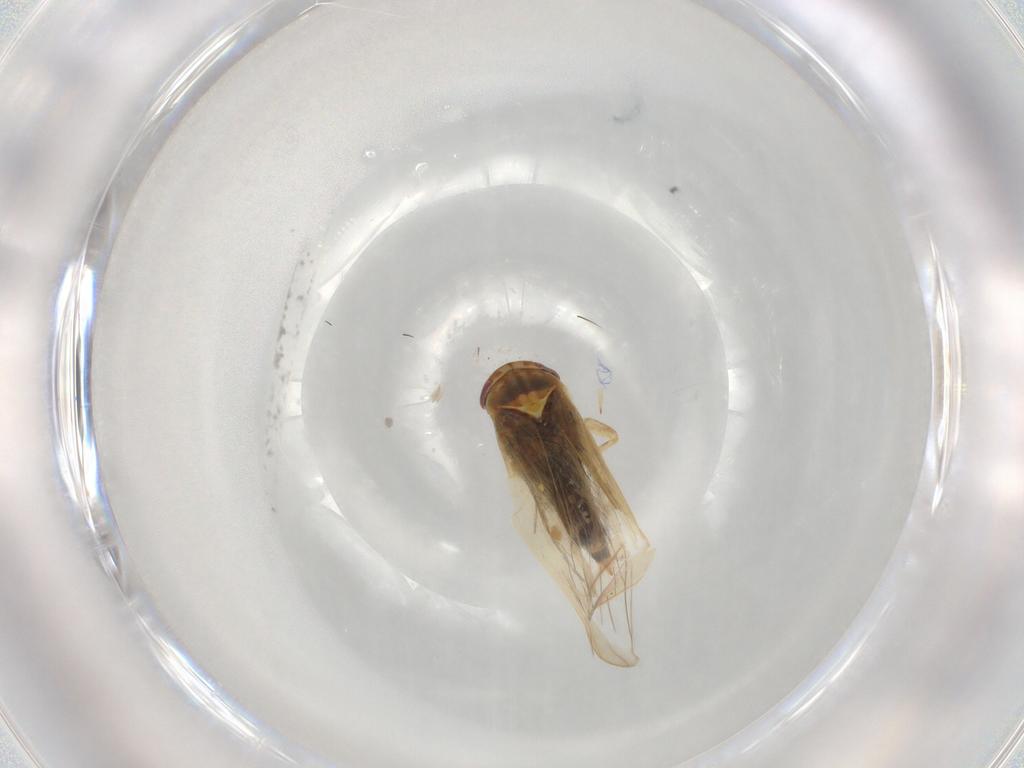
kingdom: Animalia
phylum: Arthropoda
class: Insecta
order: Hemiptera
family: Cicadellidae
